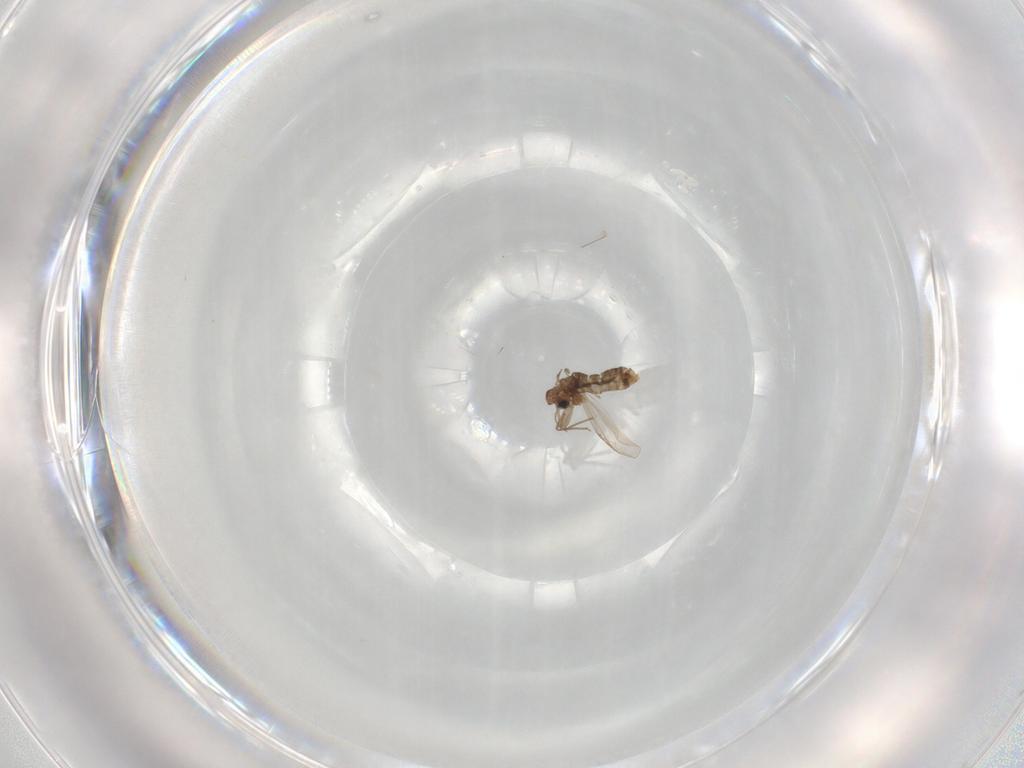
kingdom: Animalia
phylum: Arthropoda
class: Insecta
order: Diptera
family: Chironomidae
